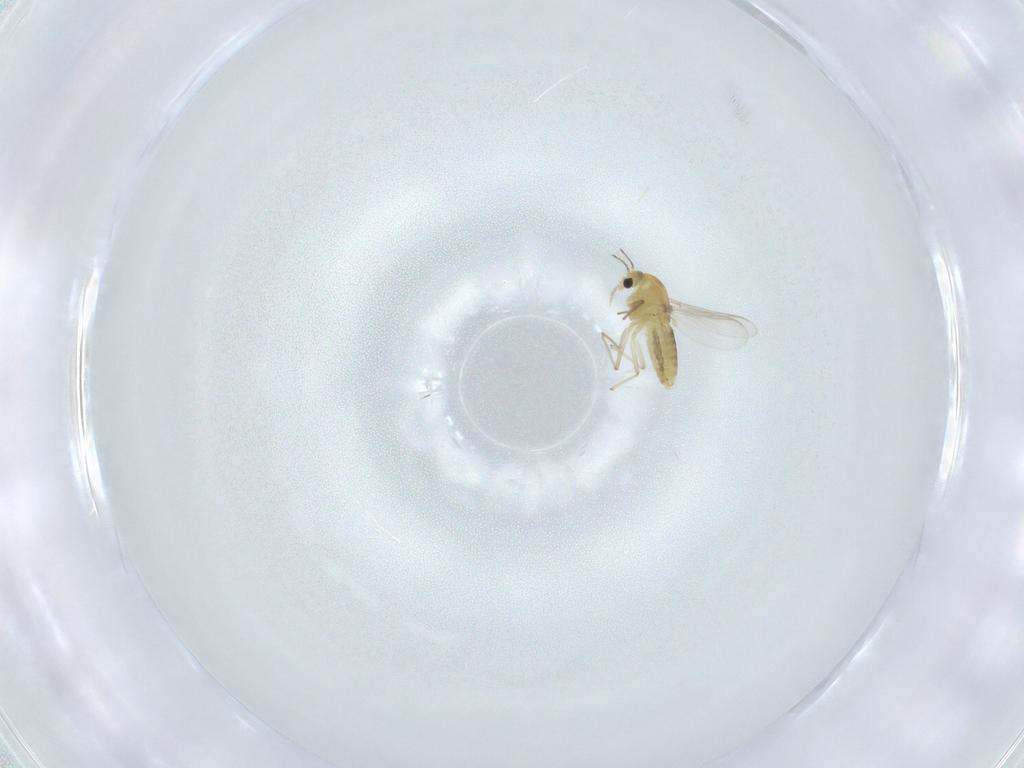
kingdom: Animalia
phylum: Arthropoda
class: Insecta
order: Diptera
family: Chironomidae
